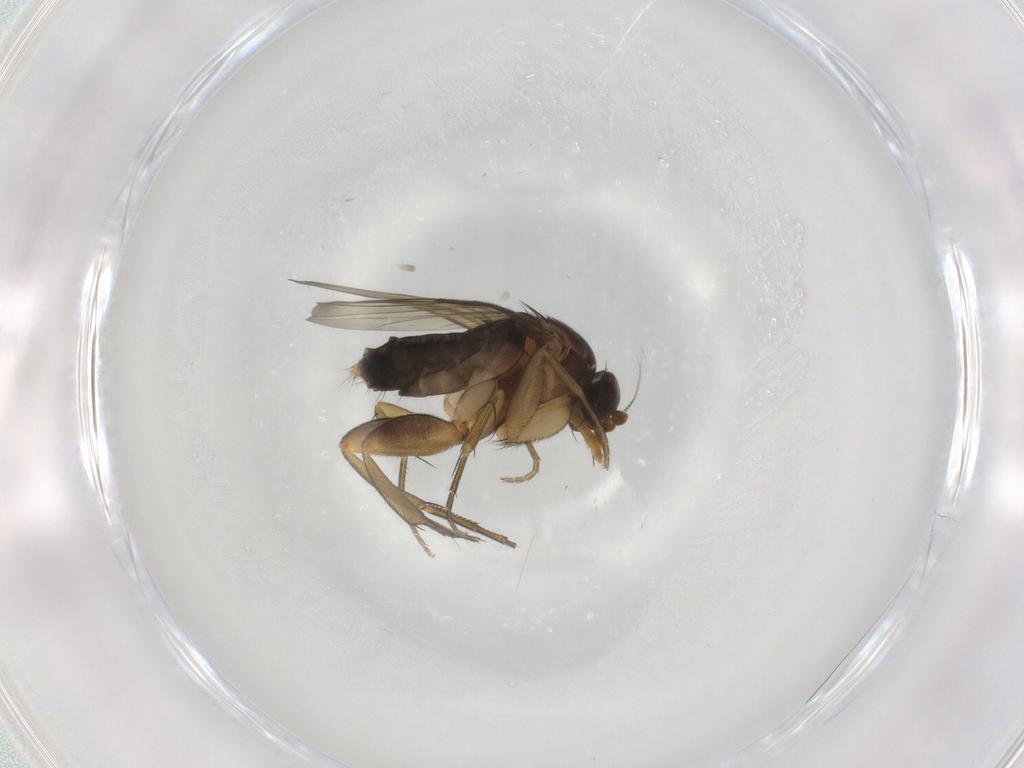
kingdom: Animalia
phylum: Arthropoda
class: Insecta
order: Diptera
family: Phoridae
